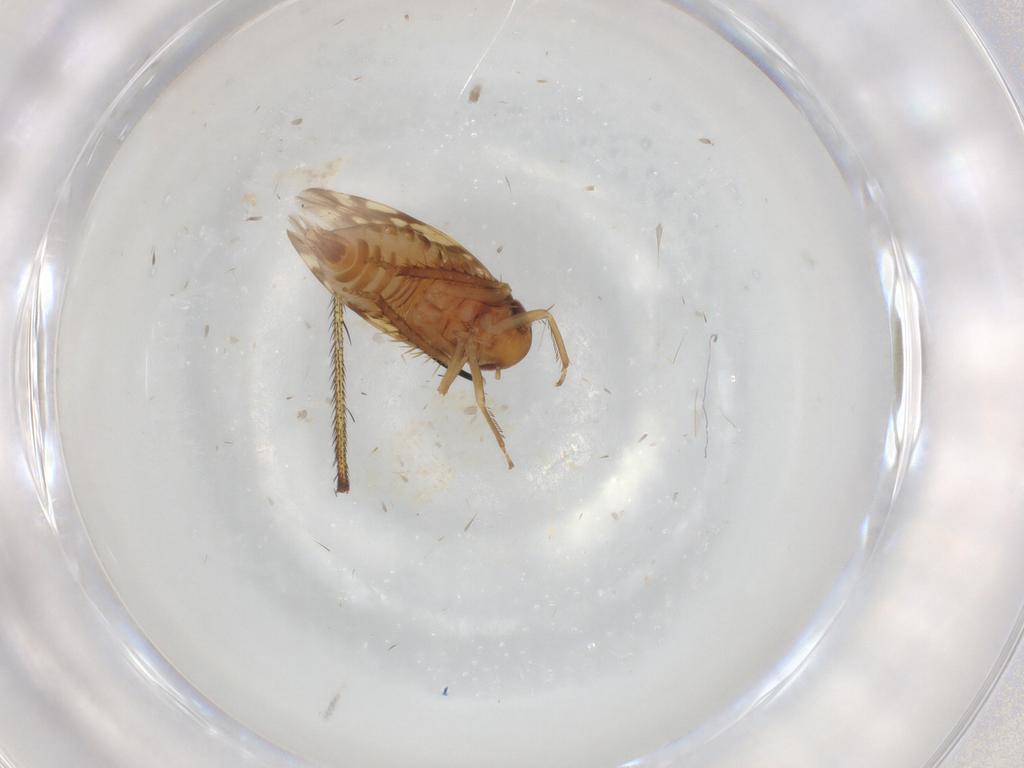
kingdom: Animalia
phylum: Arthropoda
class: Insecta
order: Hemiptera
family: Cicadellidae
